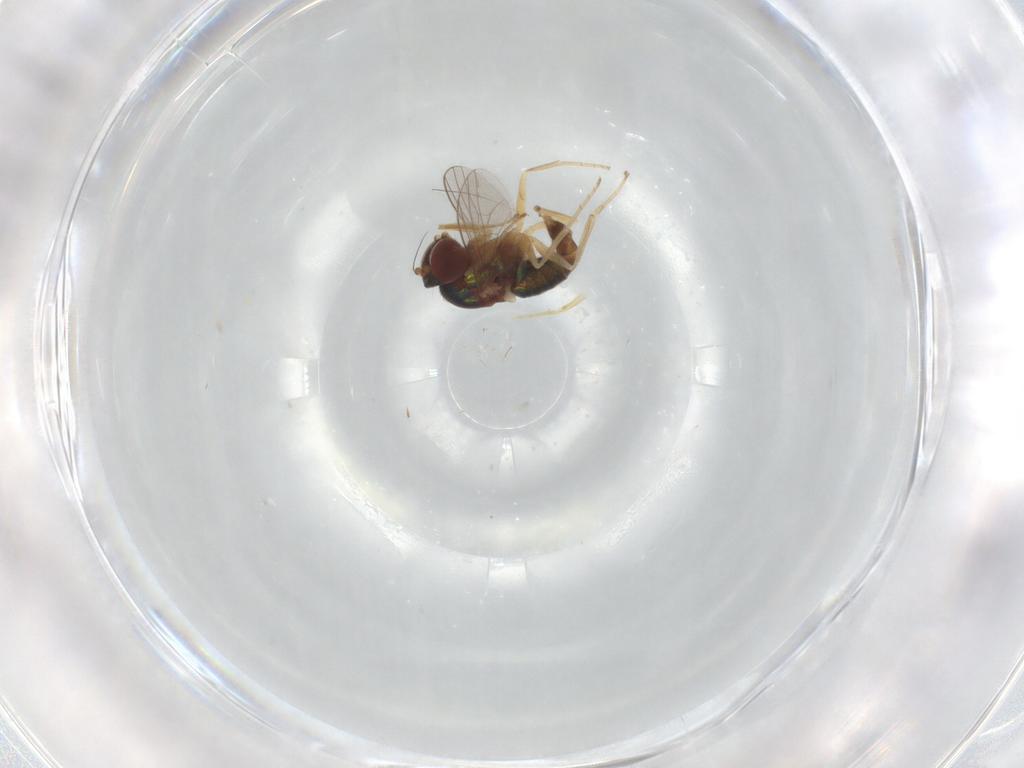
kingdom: Animalia
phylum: Arthropoda
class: Insecta
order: Diptera
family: Dolichopodidae
